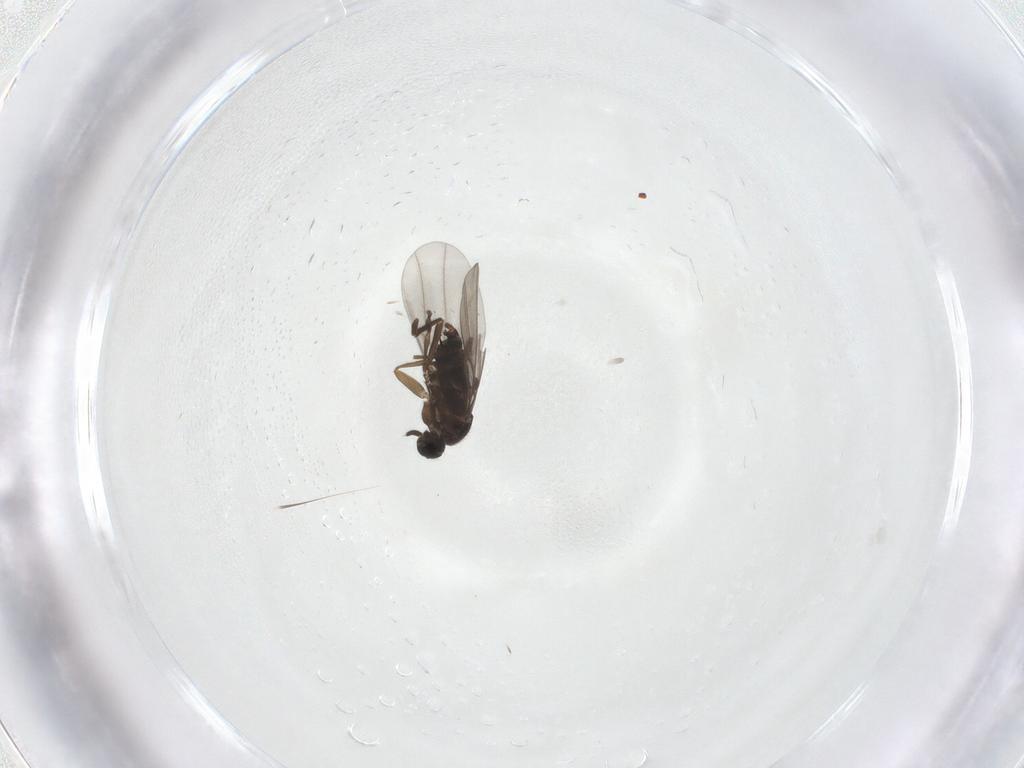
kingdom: Animalia
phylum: Arthropoda
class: Insecta
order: Diptera
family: Phoridae
